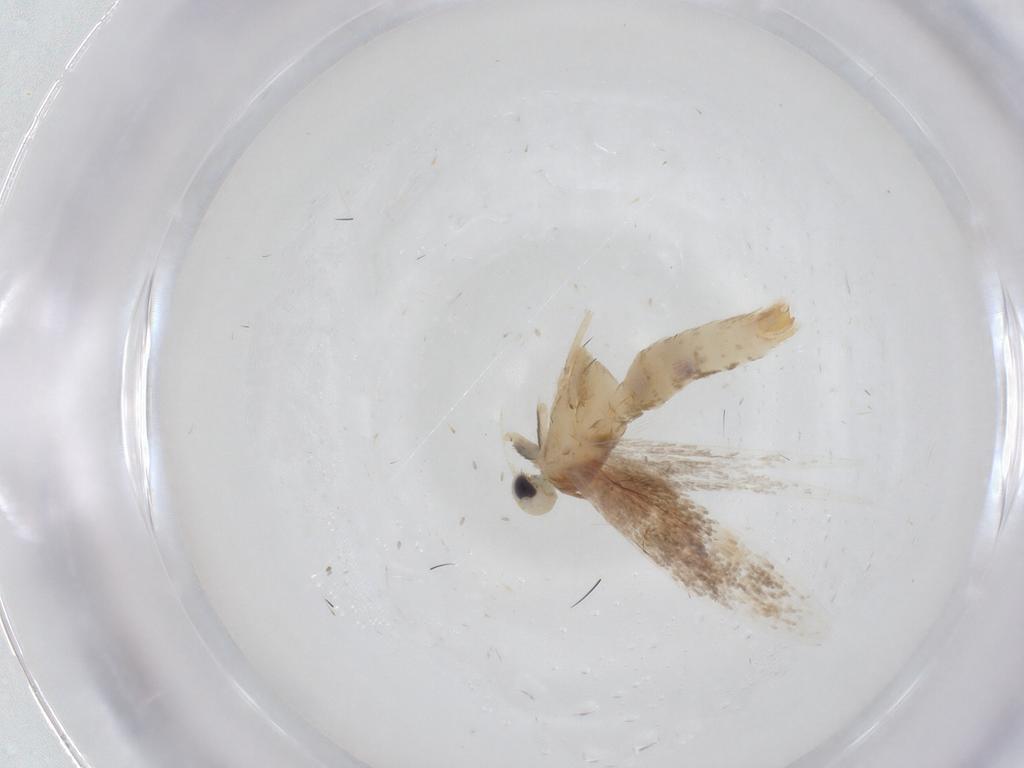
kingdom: Animalia
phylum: Arthropoda
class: Insecta
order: Lepidoptera
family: Gracillariidae
